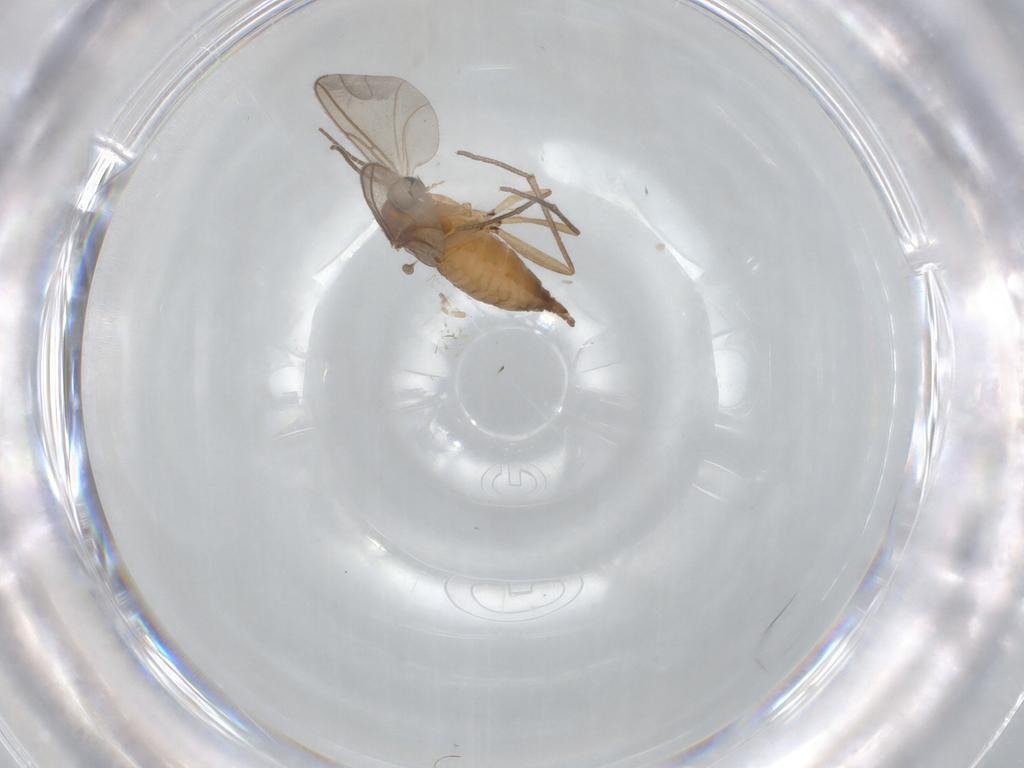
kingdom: Animalia
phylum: Arthropoda
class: Insecta
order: Diptera
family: Sciaridae
